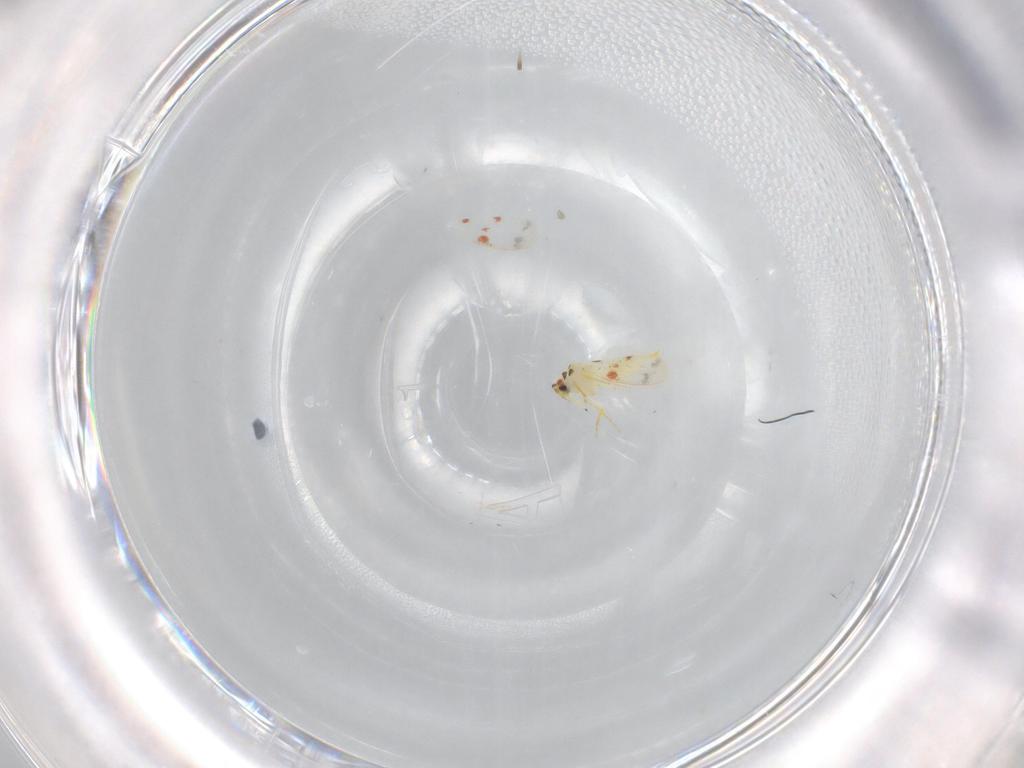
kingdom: Animalia
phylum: Arthropoda
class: Insecta
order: Hemiptera
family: Aleyrodidae
